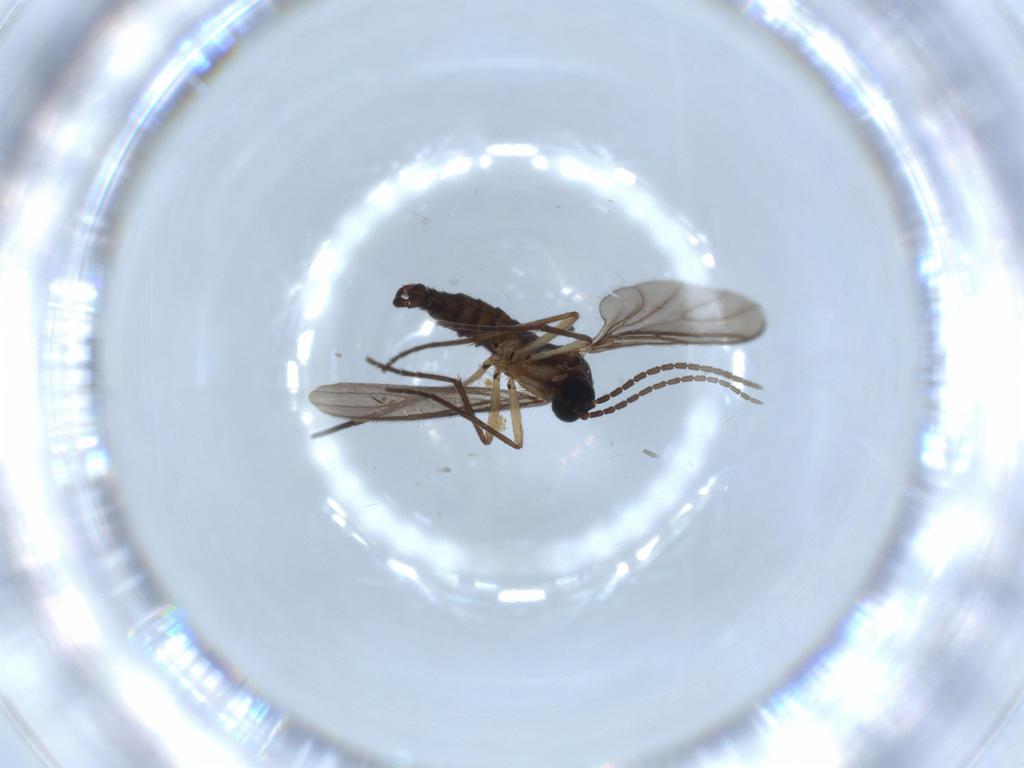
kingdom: Animalia
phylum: Arthropoda
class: Insecta
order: Diptera
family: Sciaridae
